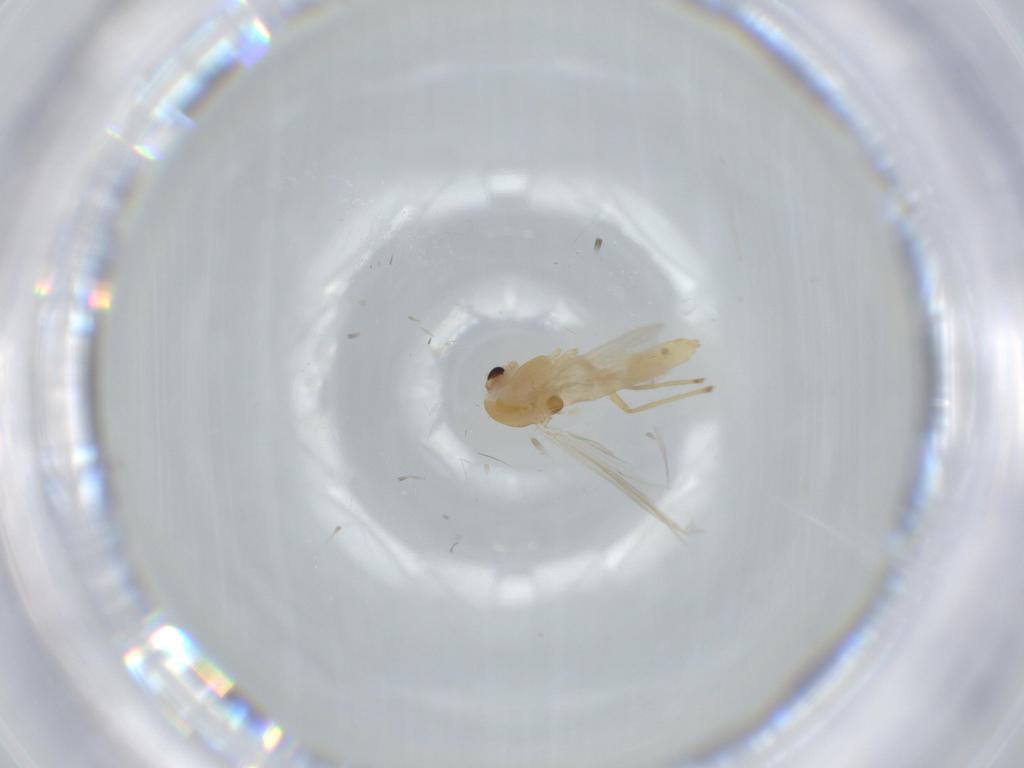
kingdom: Animalia
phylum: Arthropoda
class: Insecta
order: Diptera
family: Chironomidae
